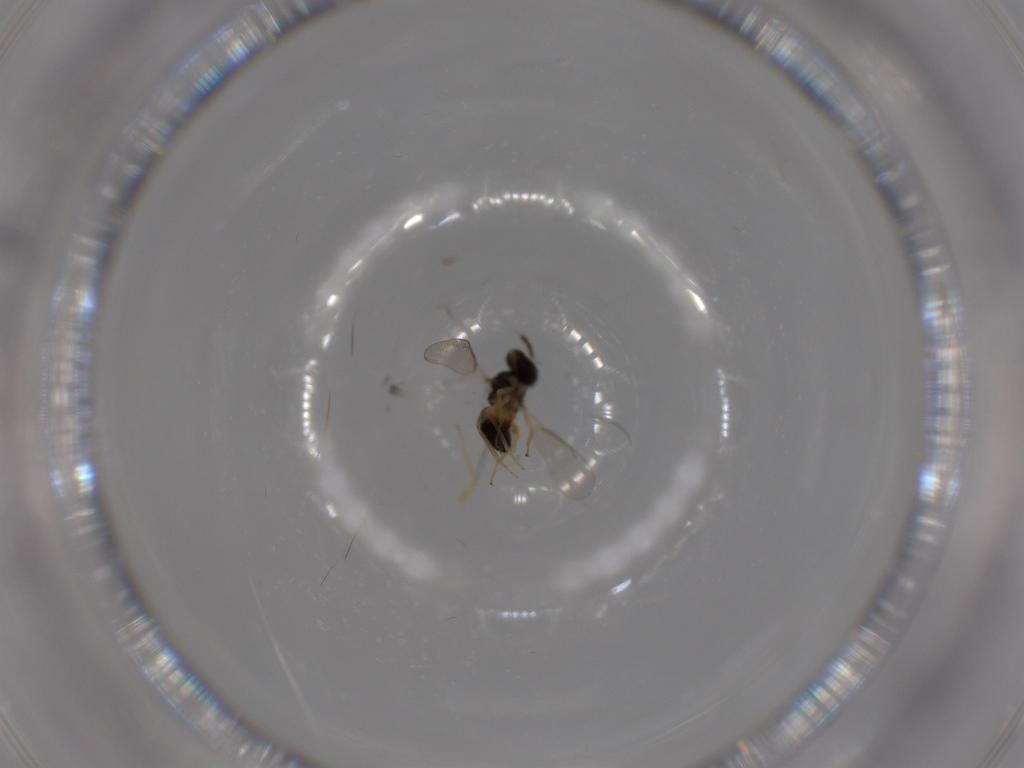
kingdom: Animalia
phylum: Arthropoda
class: Insecta
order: Hymenoptera
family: Eulophidae
